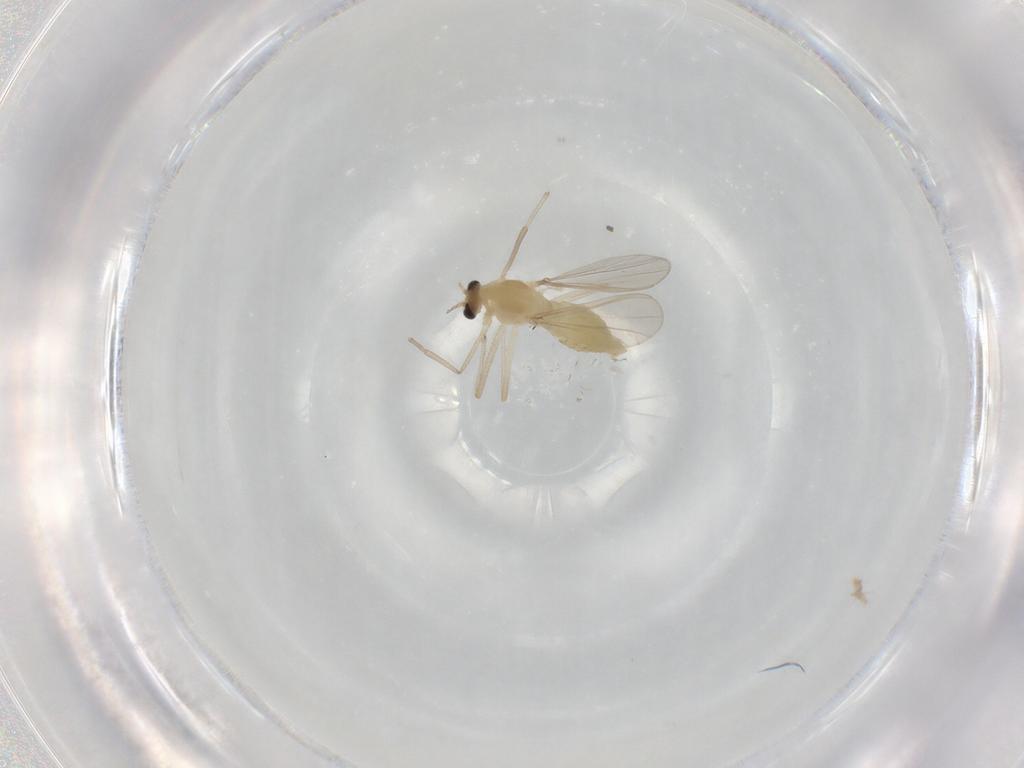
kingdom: Animalia
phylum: Arthropoda
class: Insecta
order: Diptera
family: Chironomidae
